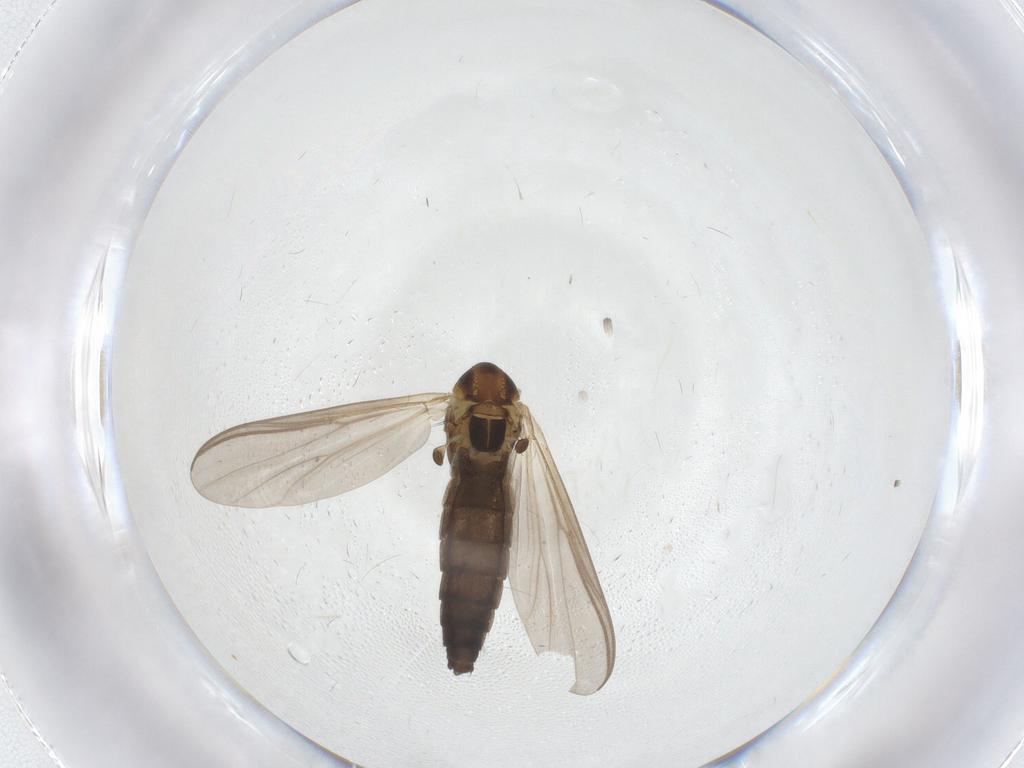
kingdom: Animalia
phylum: Arthropoda
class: Insecta
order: Diptera
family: Chironomidae
